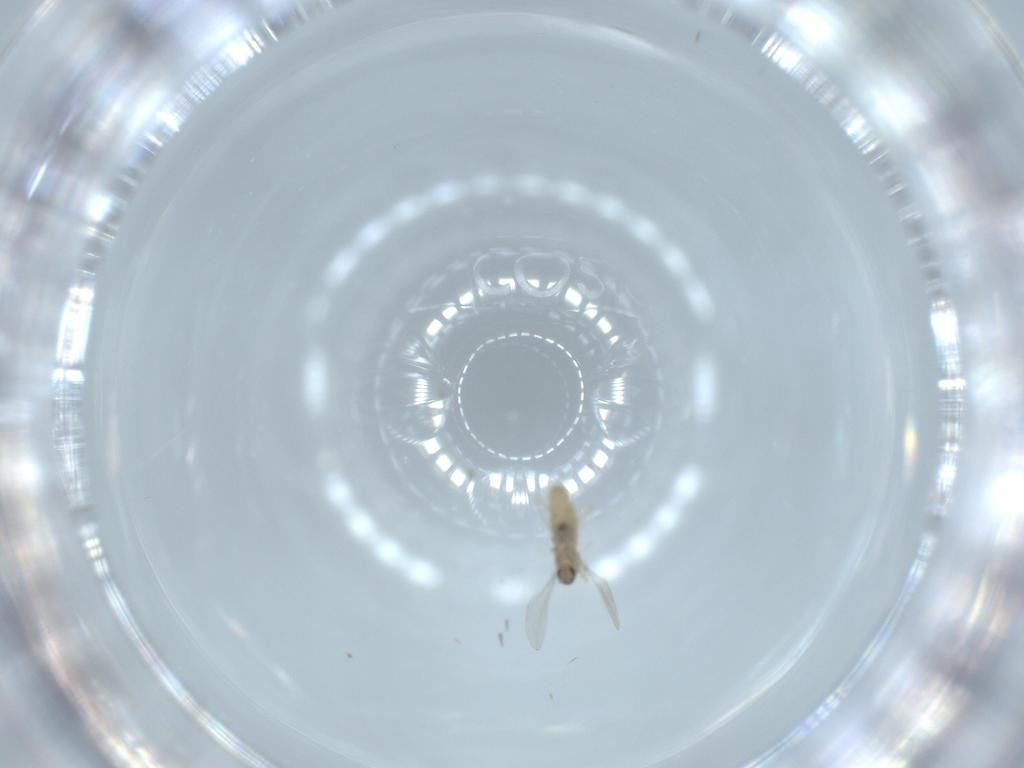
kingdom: Animalia
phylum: Arthropoda
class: Insecta
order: Diptera
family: Cecidomyiidae
